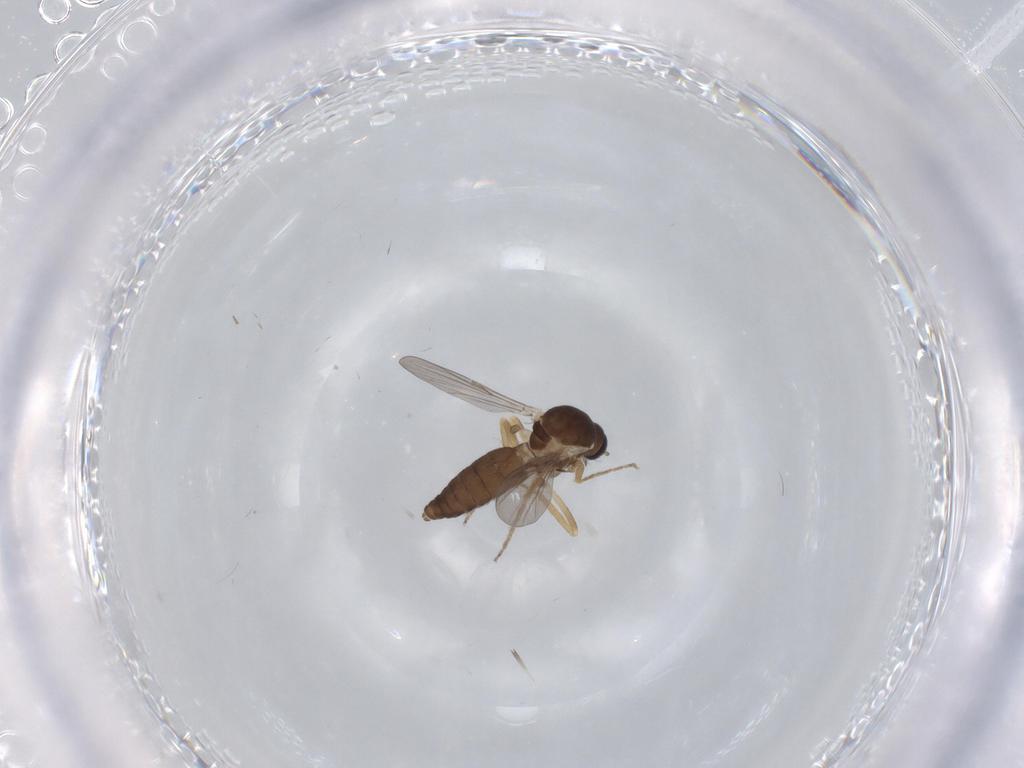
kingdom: Animalia
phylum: Arthropoda
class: Insecta
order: Diptera
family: Ceratopogonidae
